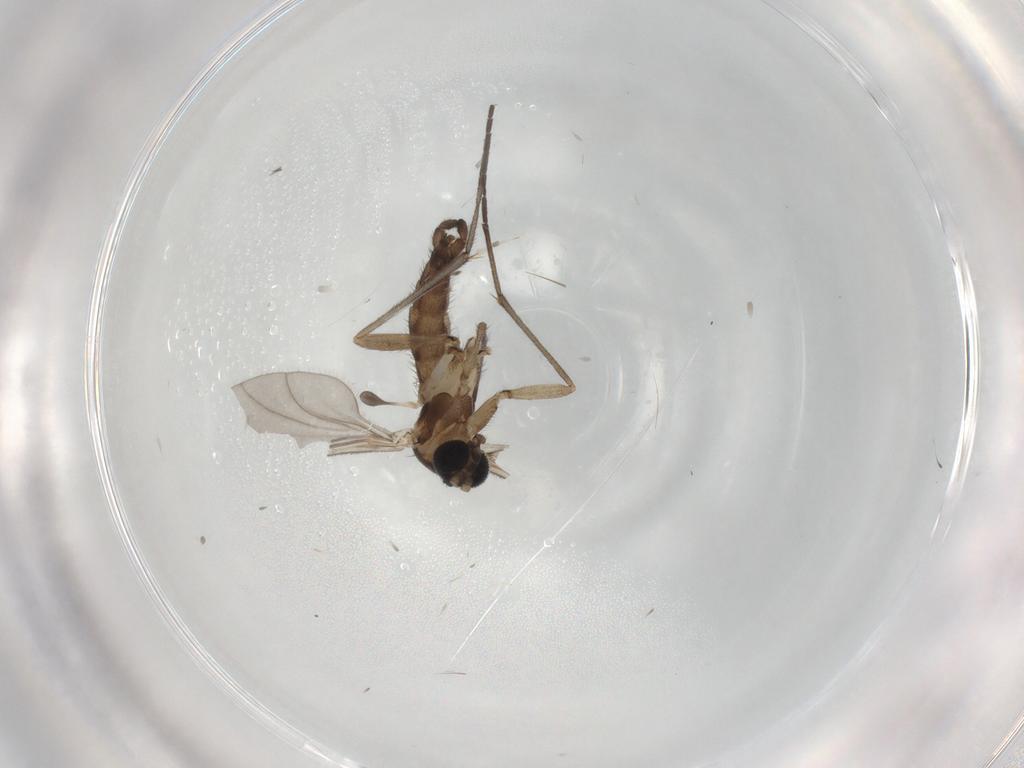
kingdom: Animalia
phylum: Arthropoda
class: Insecta
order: Diptera
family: Sciaridae
